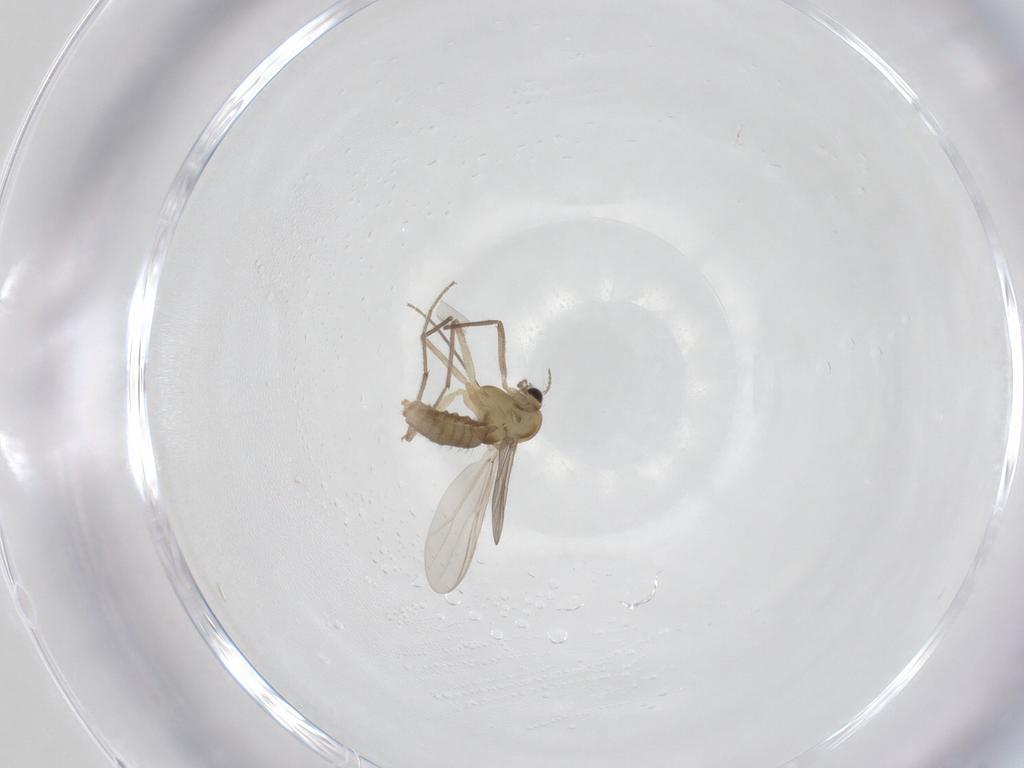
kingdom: Animalia
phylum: Arthropoda
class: Insecta
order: Diptera
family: Chironomidae
